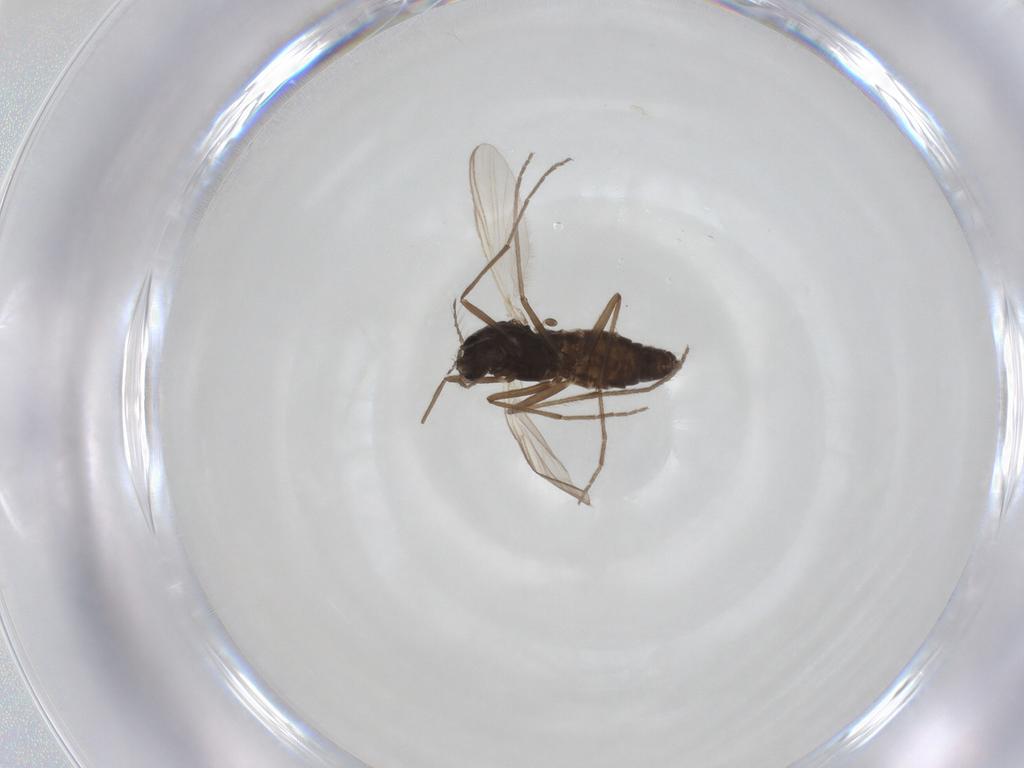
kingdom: Animalia
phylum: Arthropoda
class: Insecta
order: Diptera
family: Chironomidae
